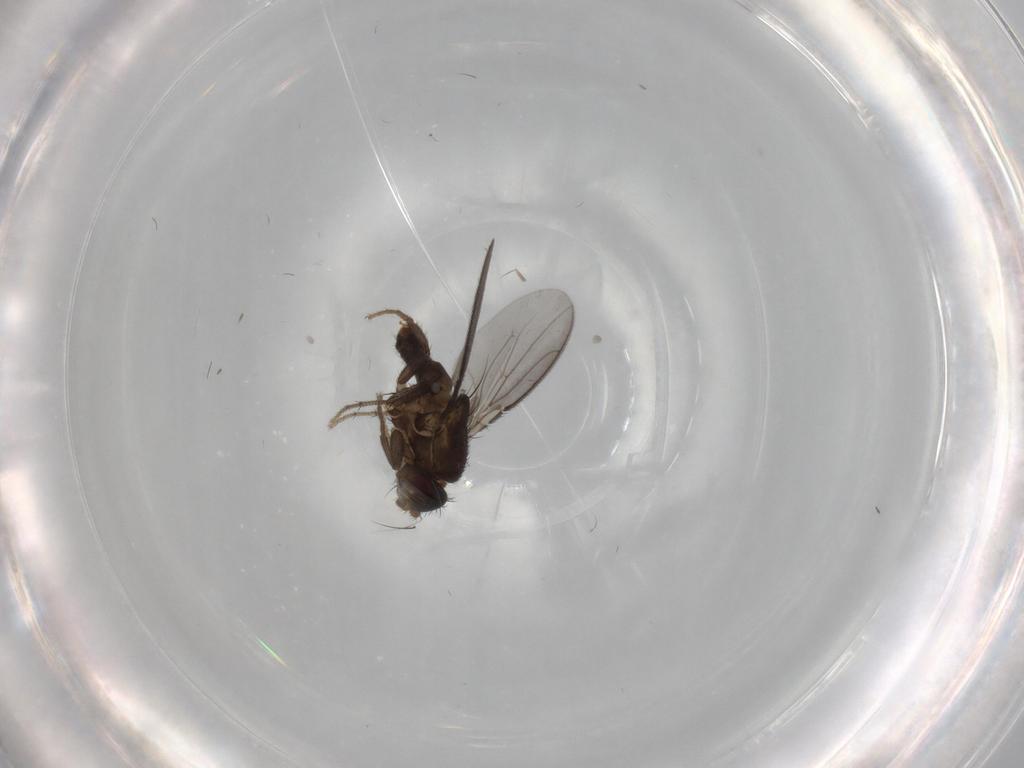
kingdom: Animalia
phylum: Arthropoda
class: Insecta
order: Diptera
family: Sphaeroceridae
